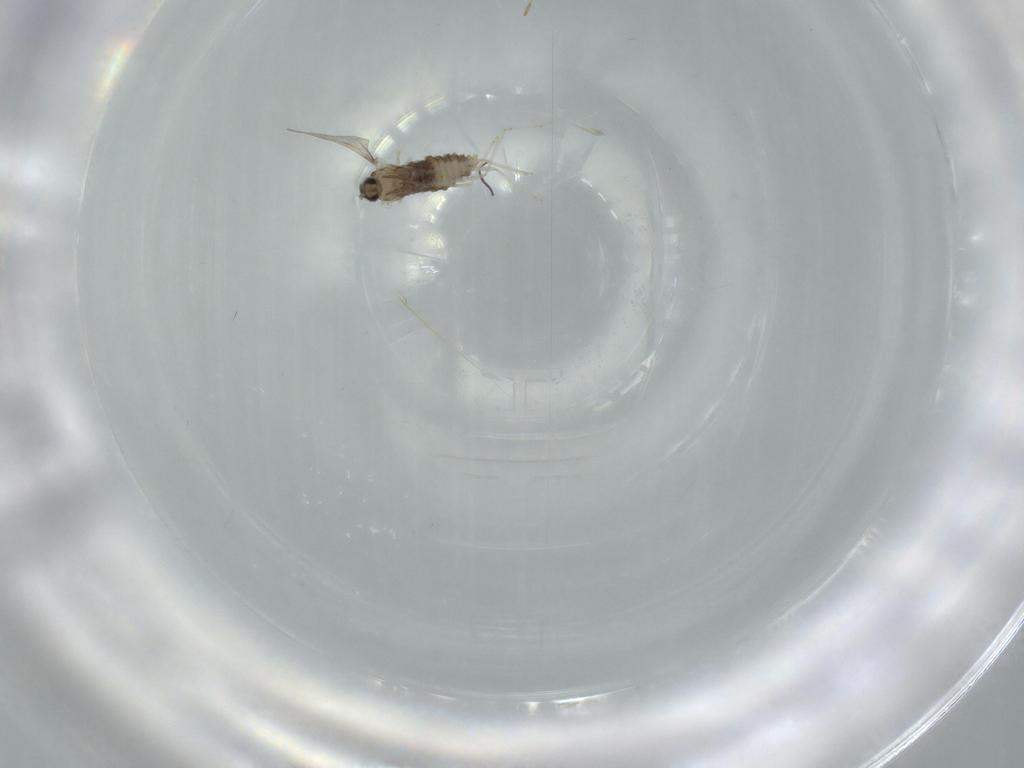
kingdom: Animalia
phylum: Arthropoda
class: Insecta
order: Diptera
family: Cecidomyiidae
